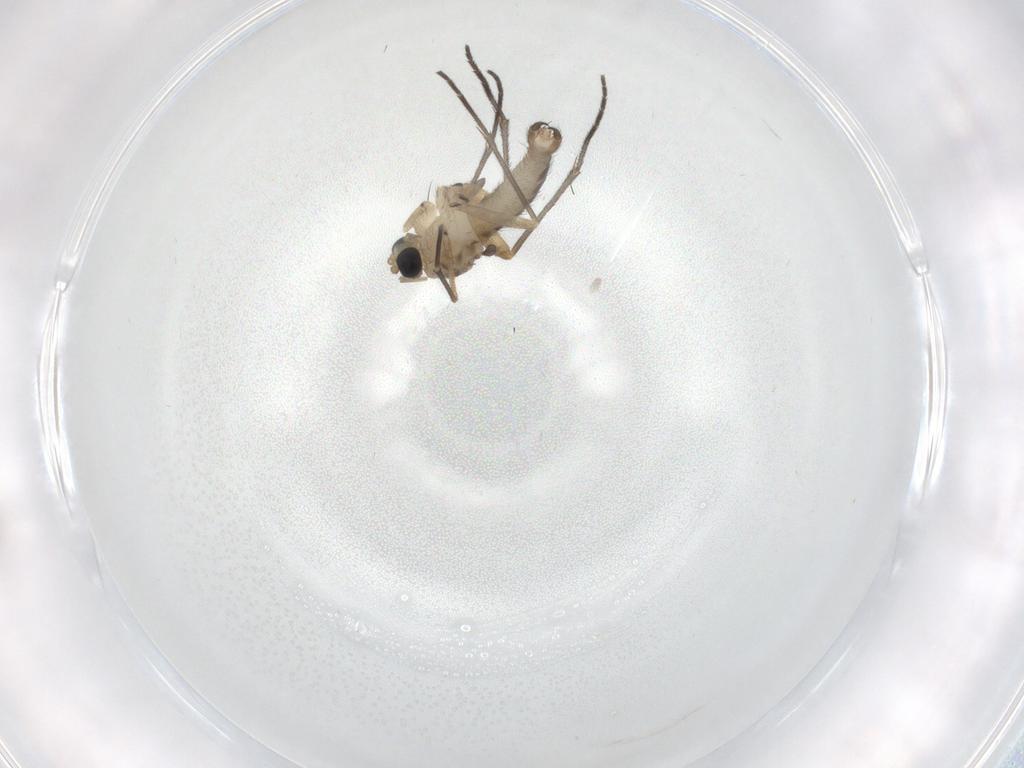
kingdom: Animalia
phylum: Arthropoda
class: Insecta
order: Diptera
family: Sciaridae
